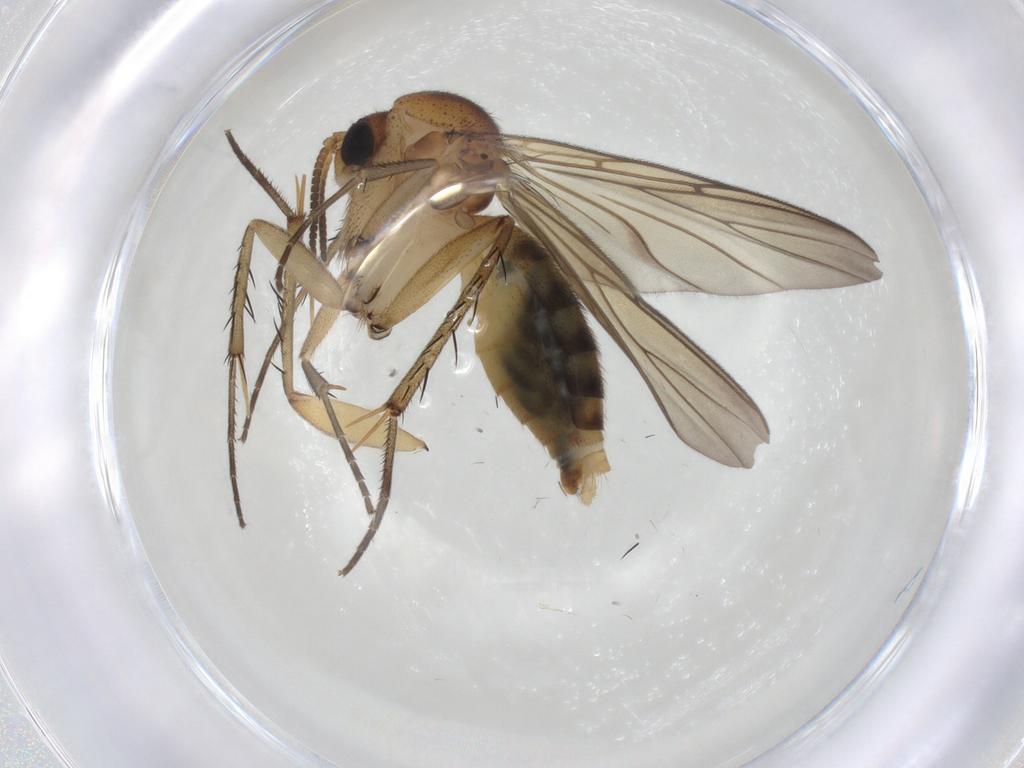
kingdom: Animalia
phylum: Arthropoda
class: Insecta
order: Diptera
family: Mycetophilidae
